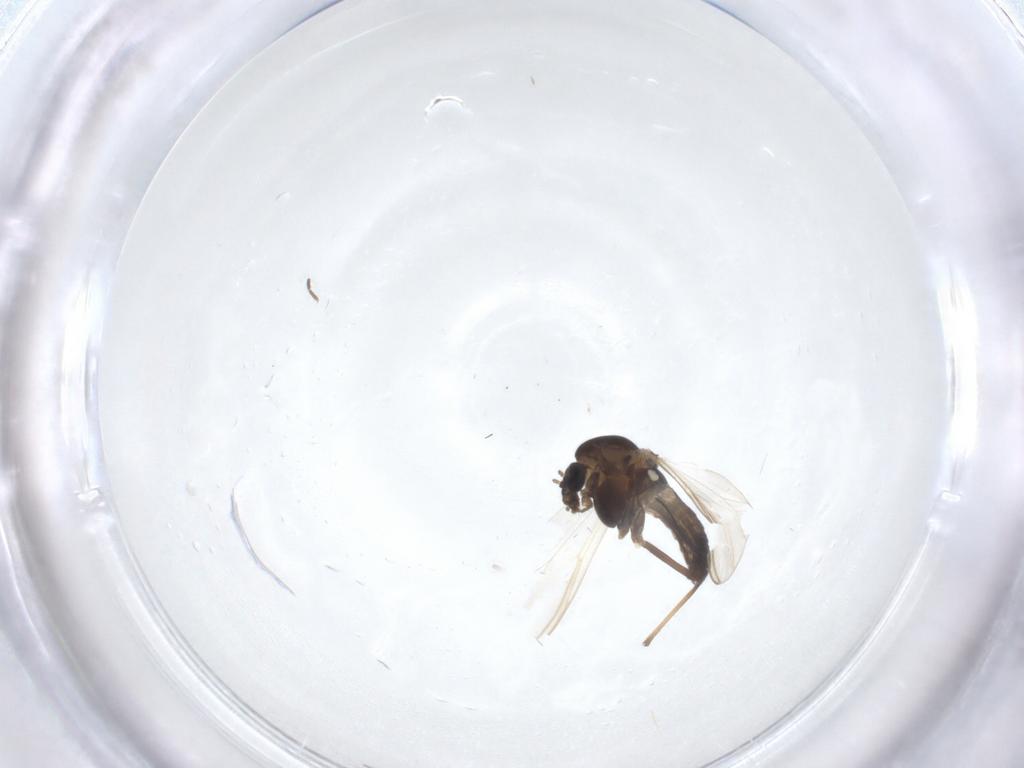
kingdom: Animalia
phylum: Arthropoda
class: Insecta
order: Diptera
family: Chironomidae
